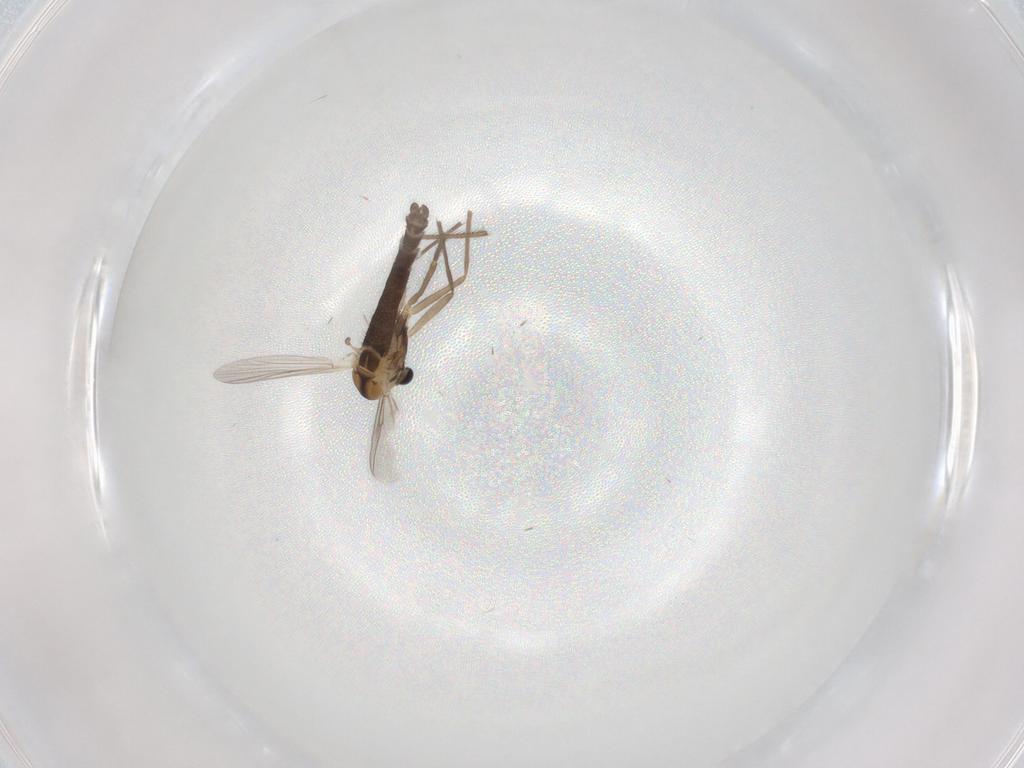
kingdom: Animalia
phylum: Arthropoda
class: Insecta
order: Diptera
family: Chironomidae
